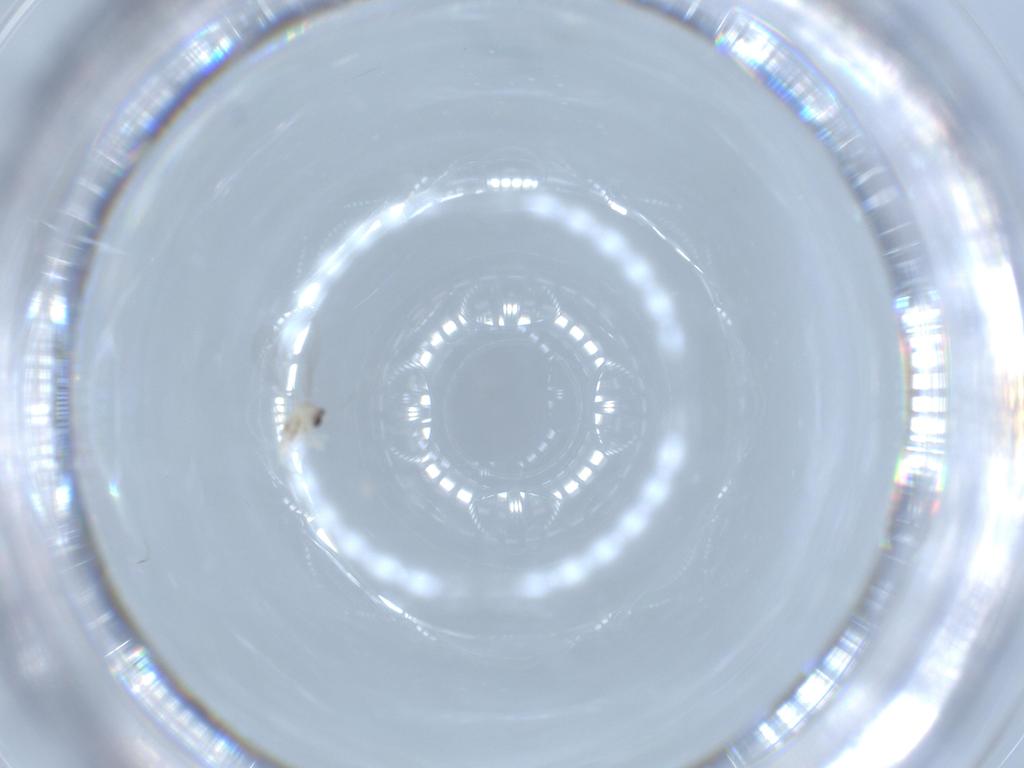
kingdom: Animalia
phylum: Arthropoda
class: Insecta
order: Diptera
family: Cecidomyiidae
